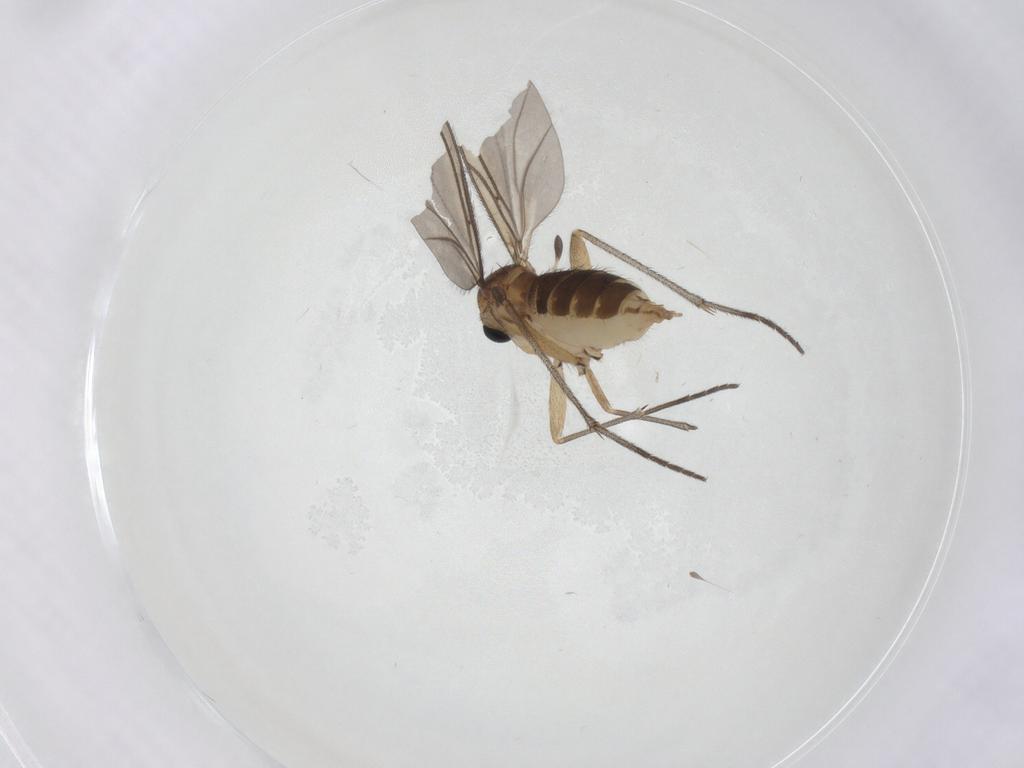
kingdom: Animalia
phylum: Arthropoda
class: Insecta
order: Diptera
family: Sciaridae
